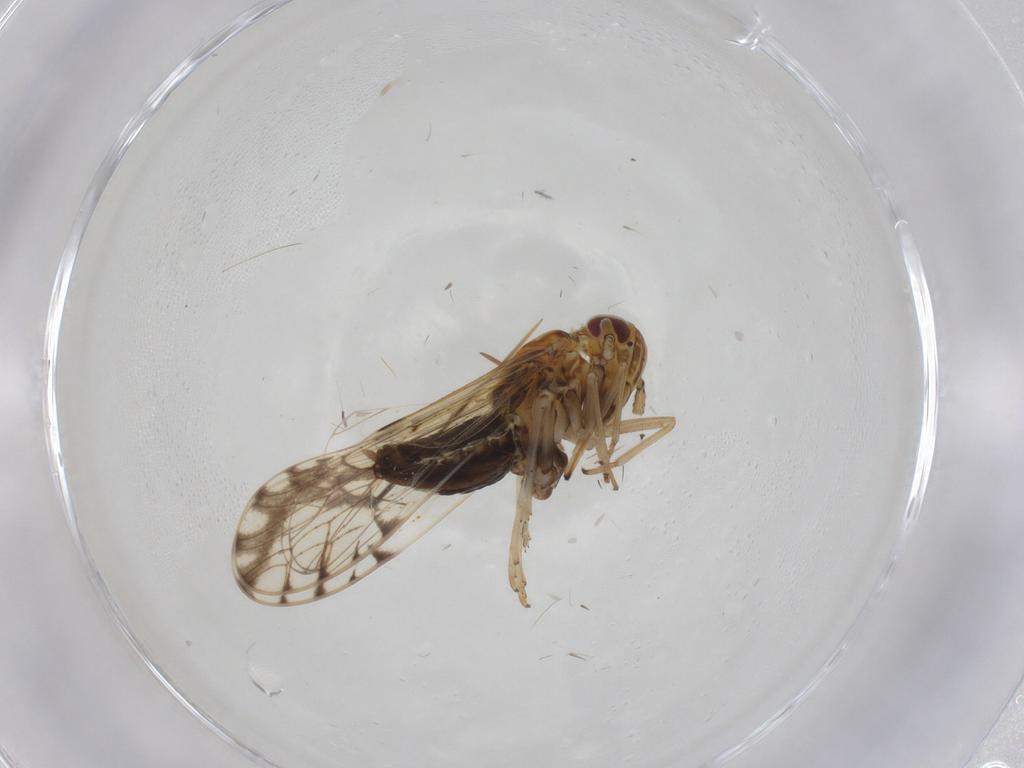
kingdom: Animalia
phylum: Arthropoda
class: Insecta
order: Hemiptera
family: Delphacidae
